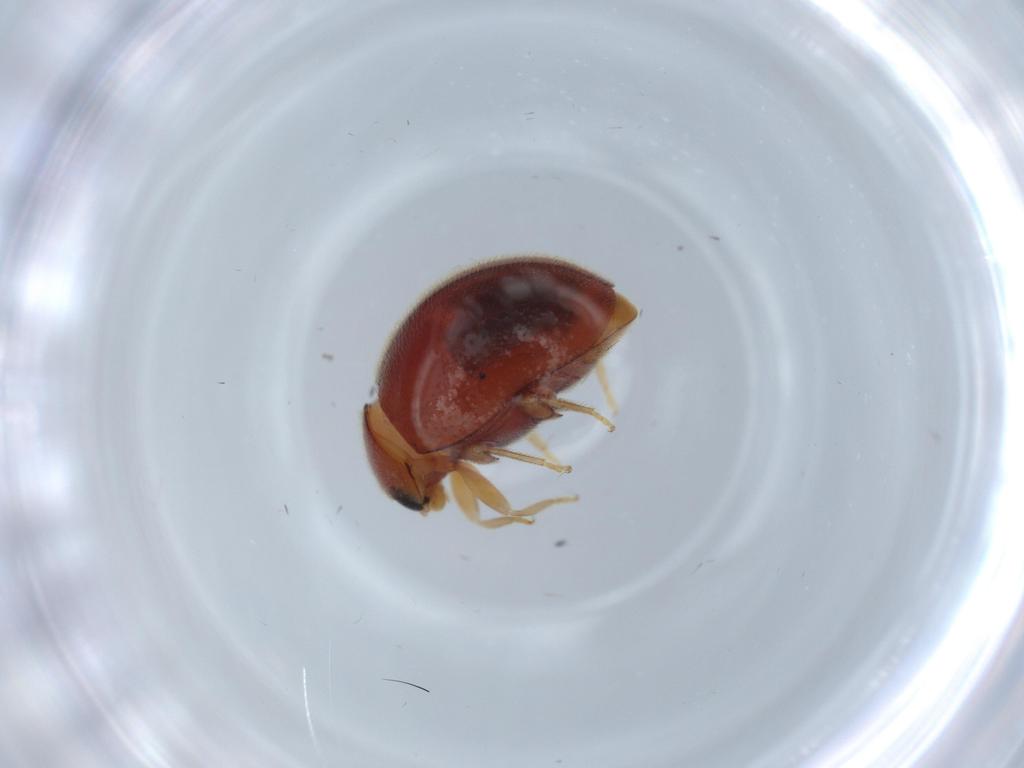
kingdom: Animalia
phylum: Arthropoda
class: Insecta
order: Coleoptera
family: Coccinellidae
